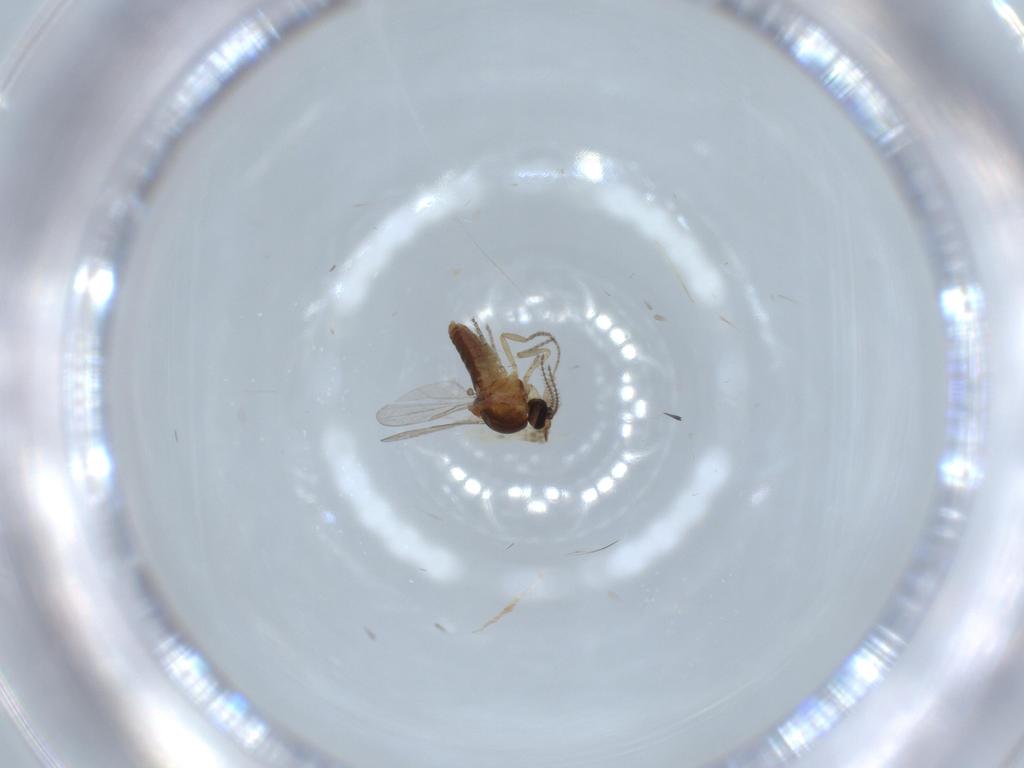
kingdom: Animalia
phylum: Arthropoda
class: Insecta
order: Diptera
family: Ceratopogonidae
